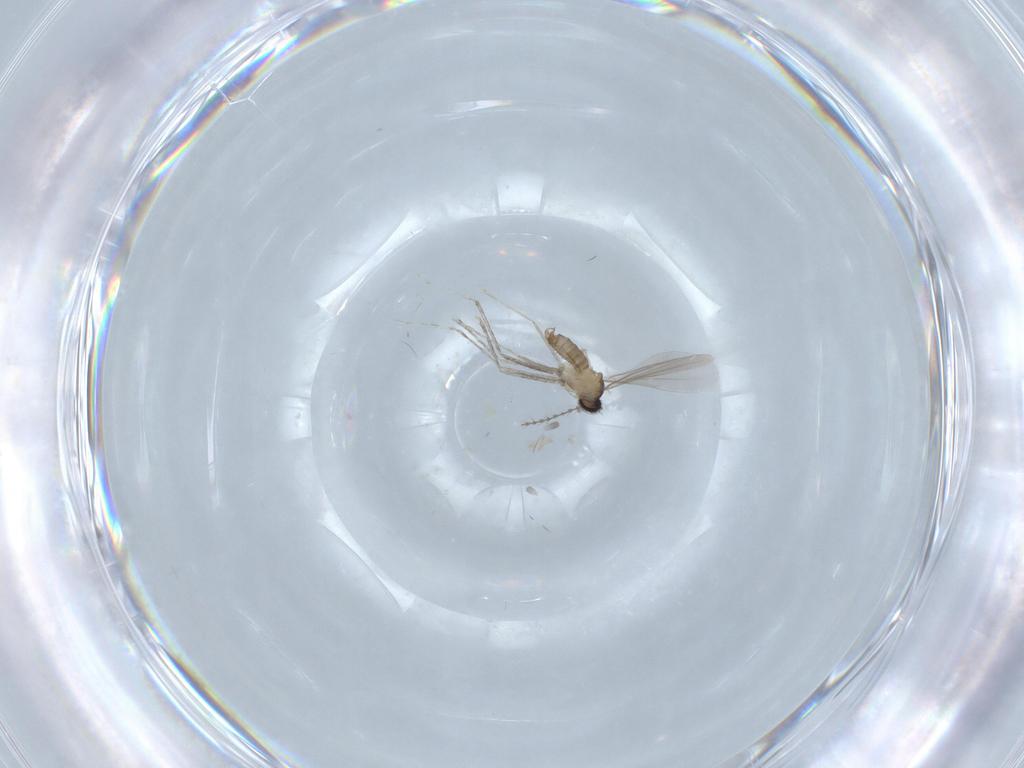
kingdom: Animalia
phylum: Arthropoda
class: Insecta
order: Diptera
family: Cecidomyiidae
